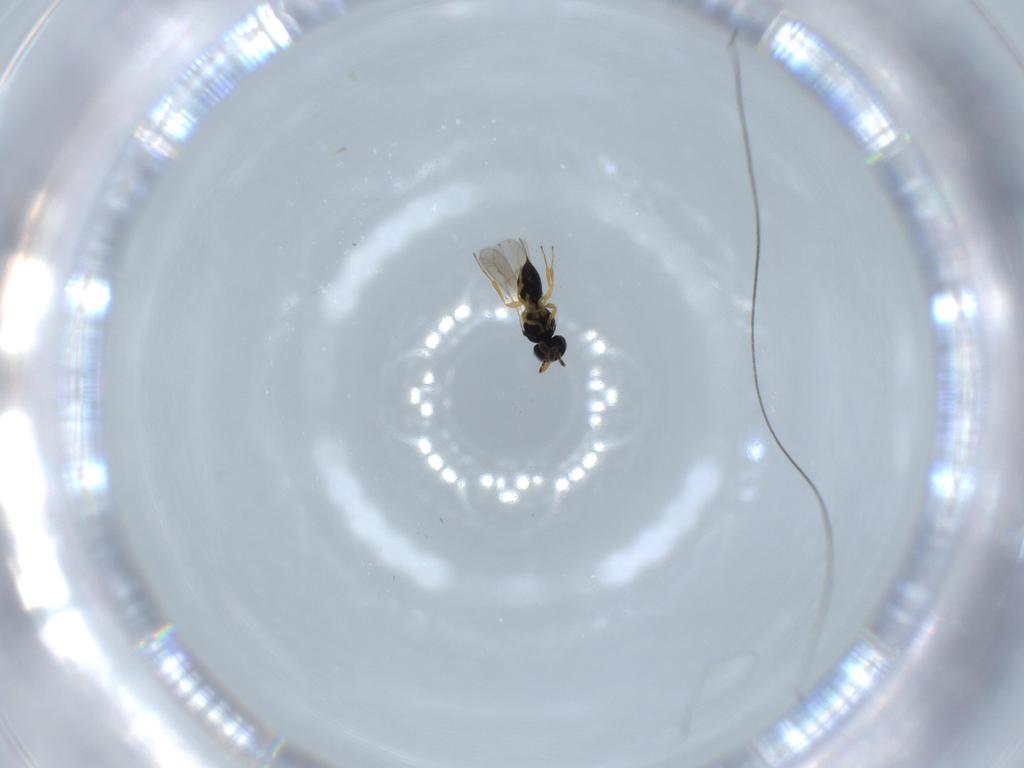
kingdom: Animalia
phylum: Arthropoda
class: Insecta
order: Hymenoptera
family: Scelionidae
